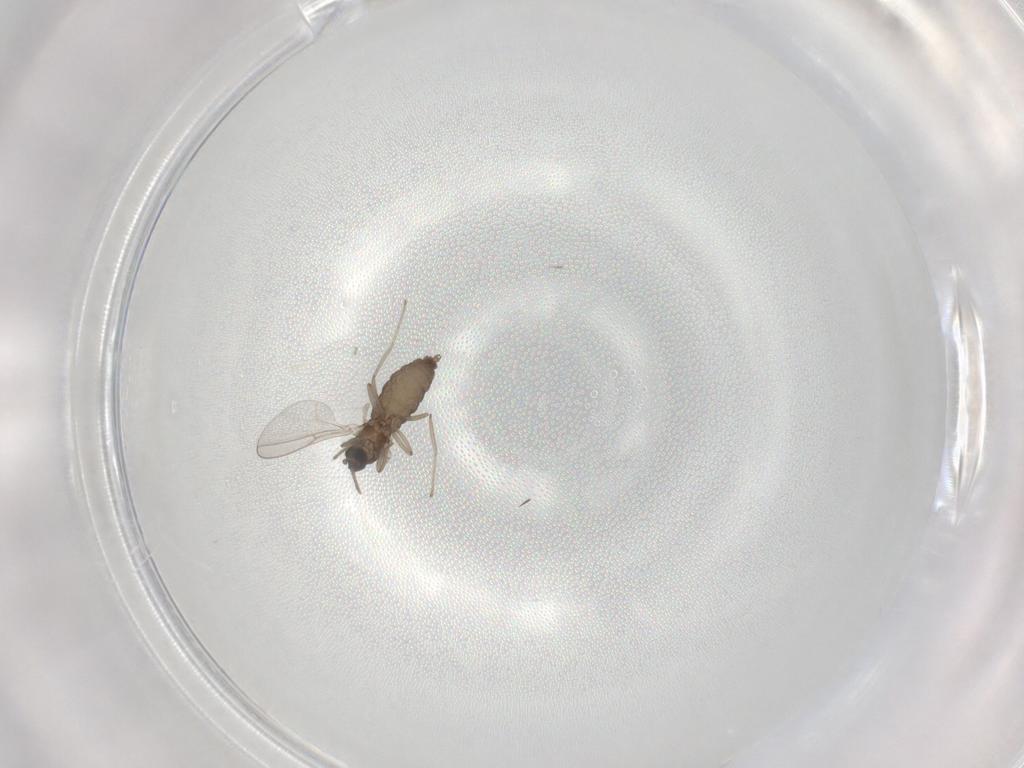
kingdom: Animalia
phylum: Arthropoda
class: Insecta
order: Diptera
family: Cecidomyiidae
